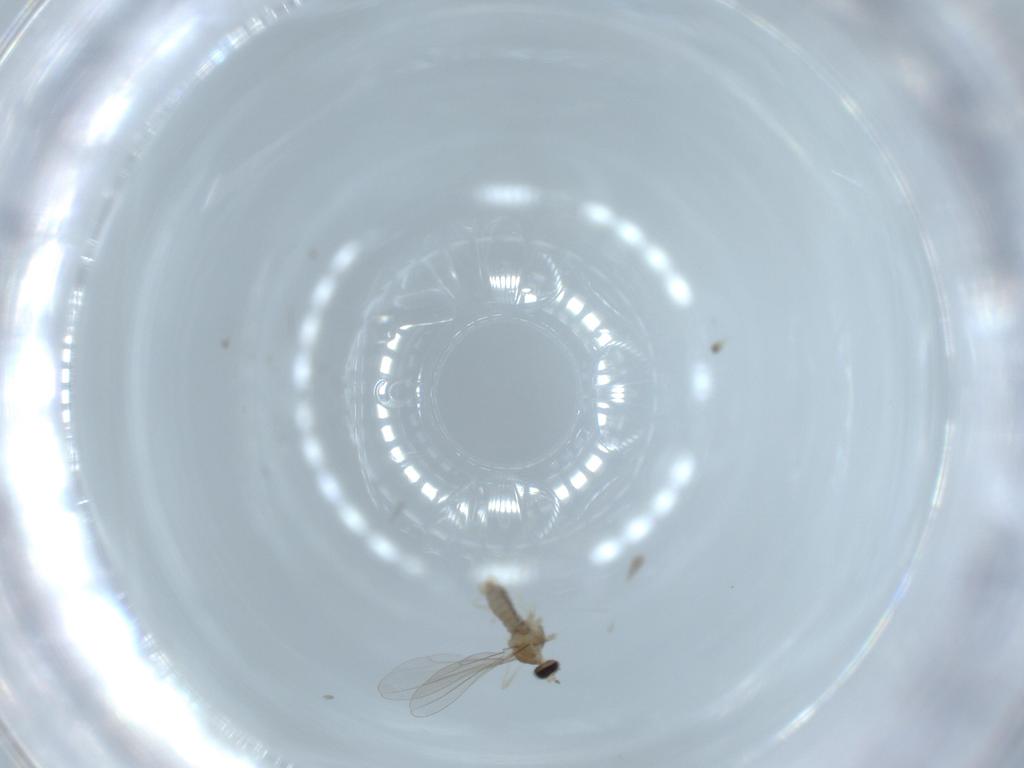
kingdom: Animalia
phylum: Arthropoda
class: Insecta
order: Diptera
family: Cecidomyiidae
